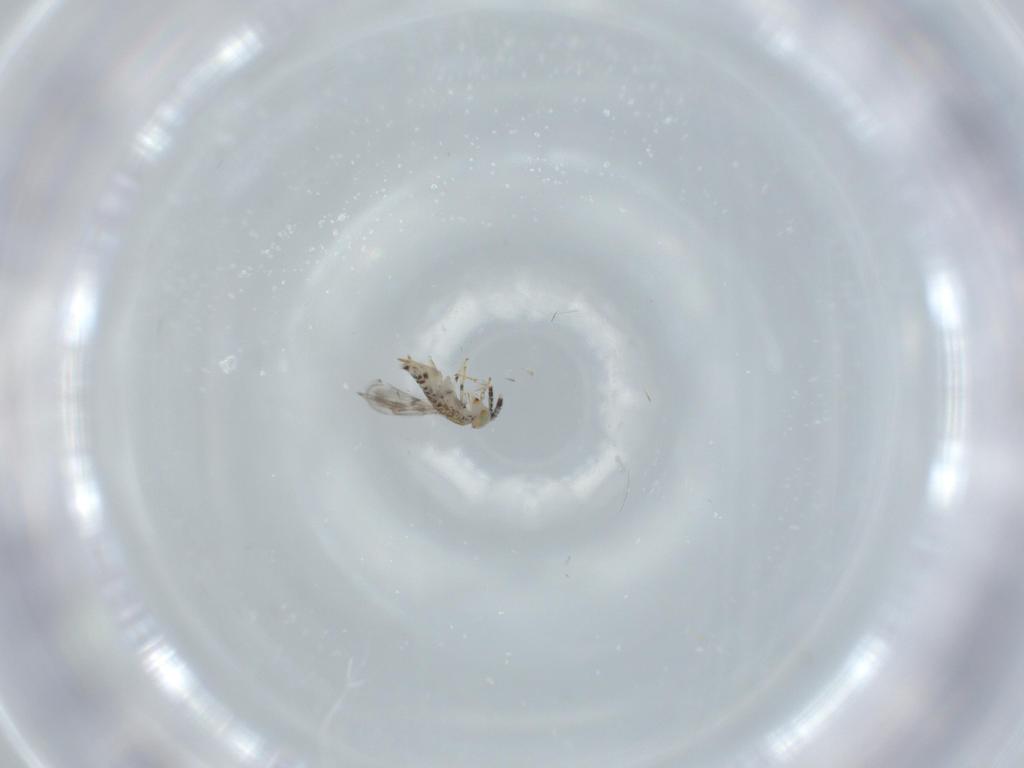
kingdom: Animalia
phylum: Arthropoda
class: Insecta
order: Hymenoptera
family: Aphelinidae
